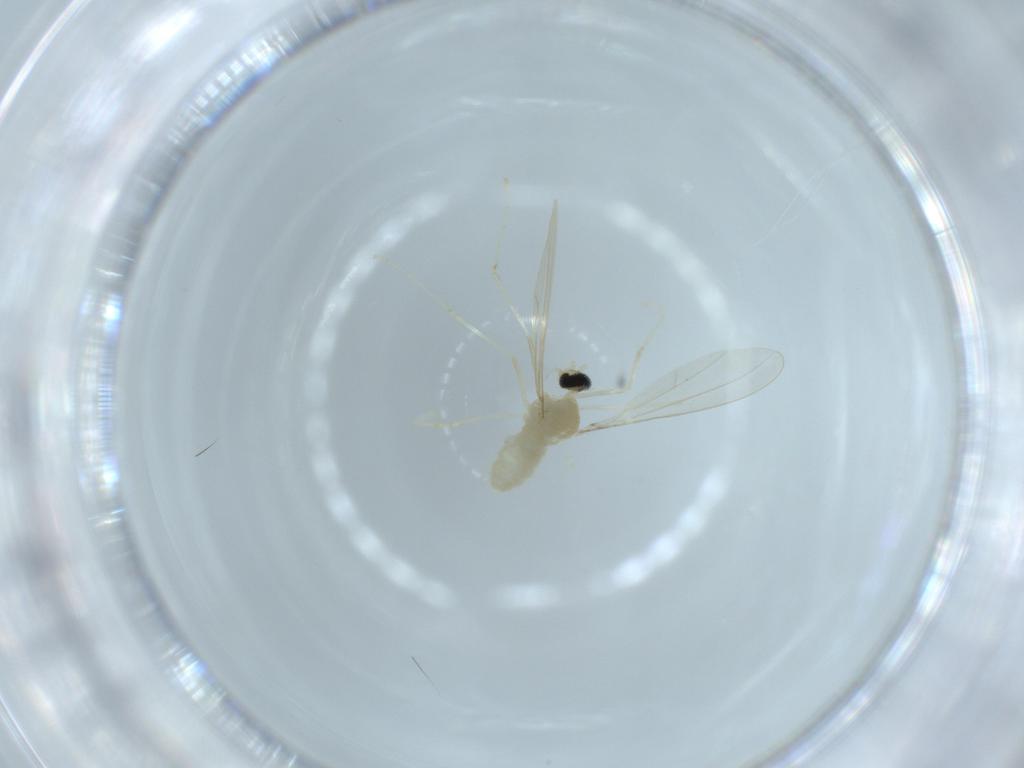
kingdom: Animalia
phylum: Arthropoda
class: Insecta
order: Diptera
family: Cecidomyiidae
